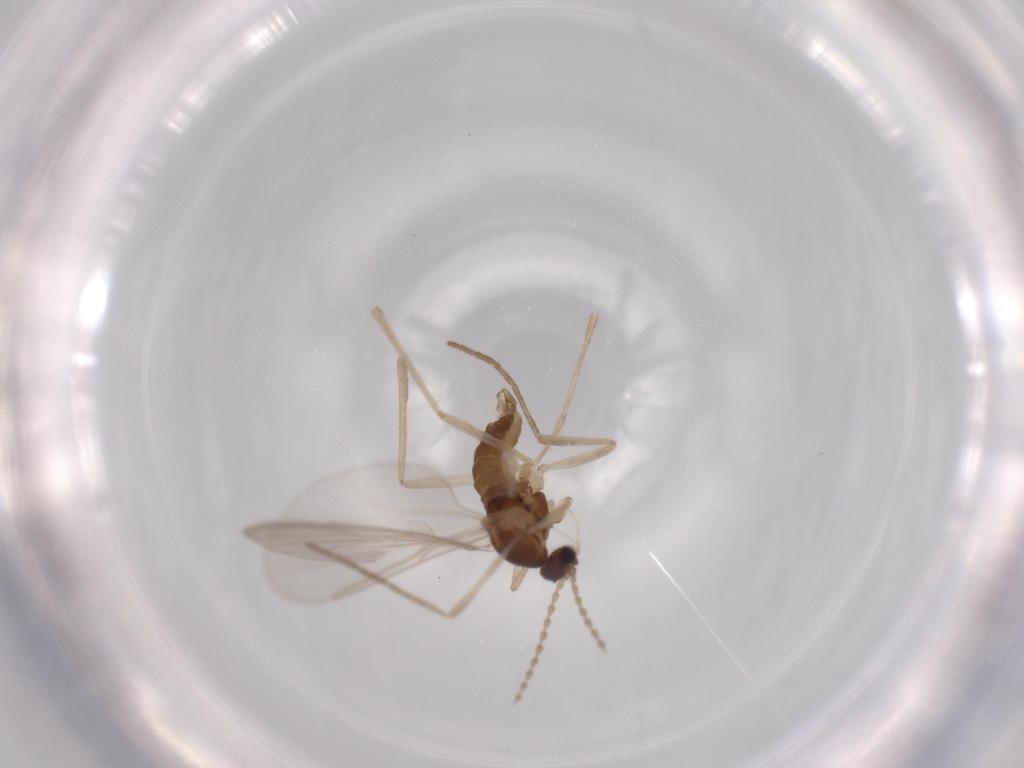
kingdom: Animalia
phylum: Arthropoda
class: Insecta
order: Diptera
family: Cecidomyiidae
